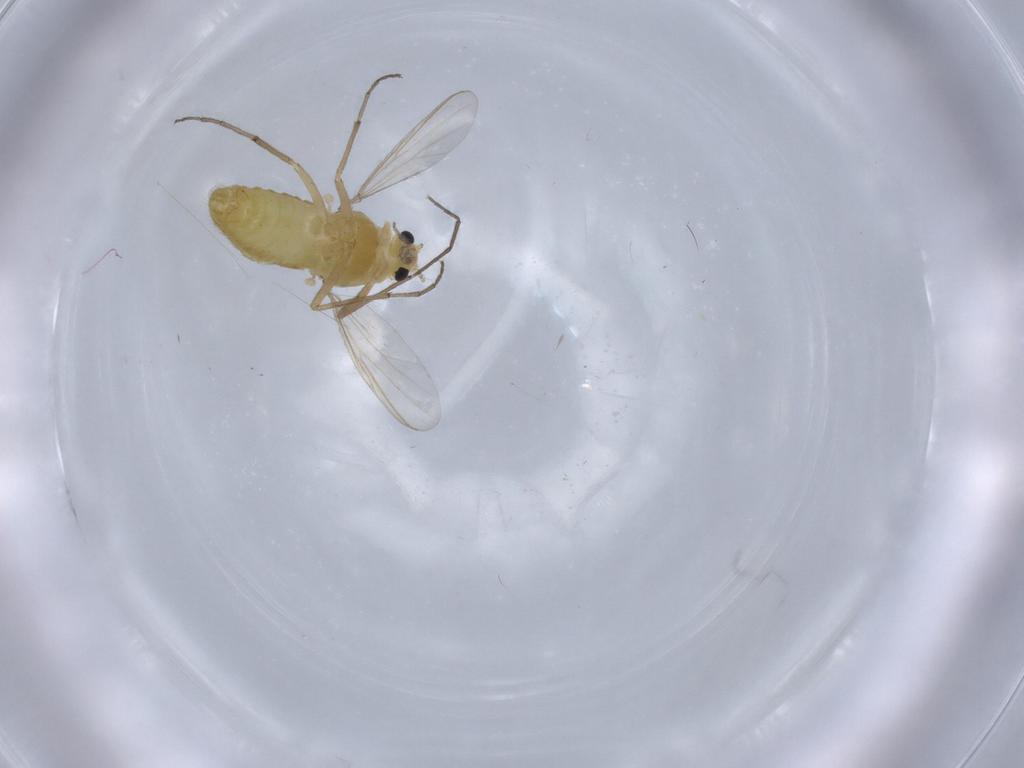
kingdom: Animalia
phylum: Arthropoda
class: Insecta
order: Diptera
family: Chironomidae
